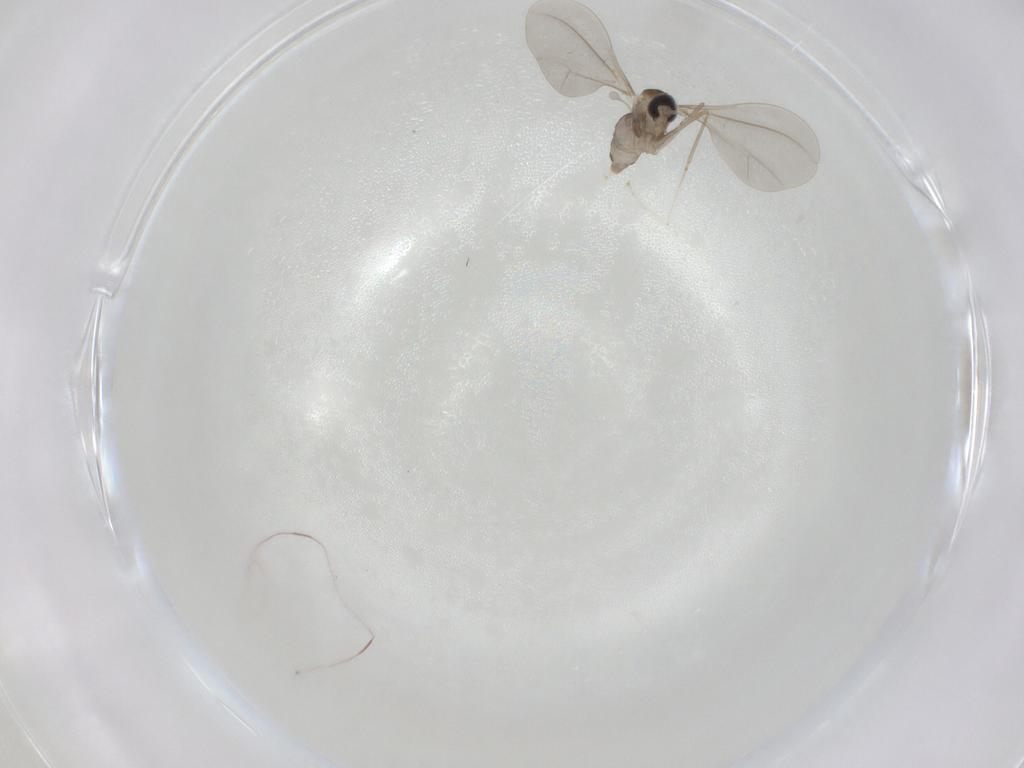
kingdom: Animalia
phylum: Arthropoda
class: Insecta
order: Diptera
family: Cecidomyiidae
